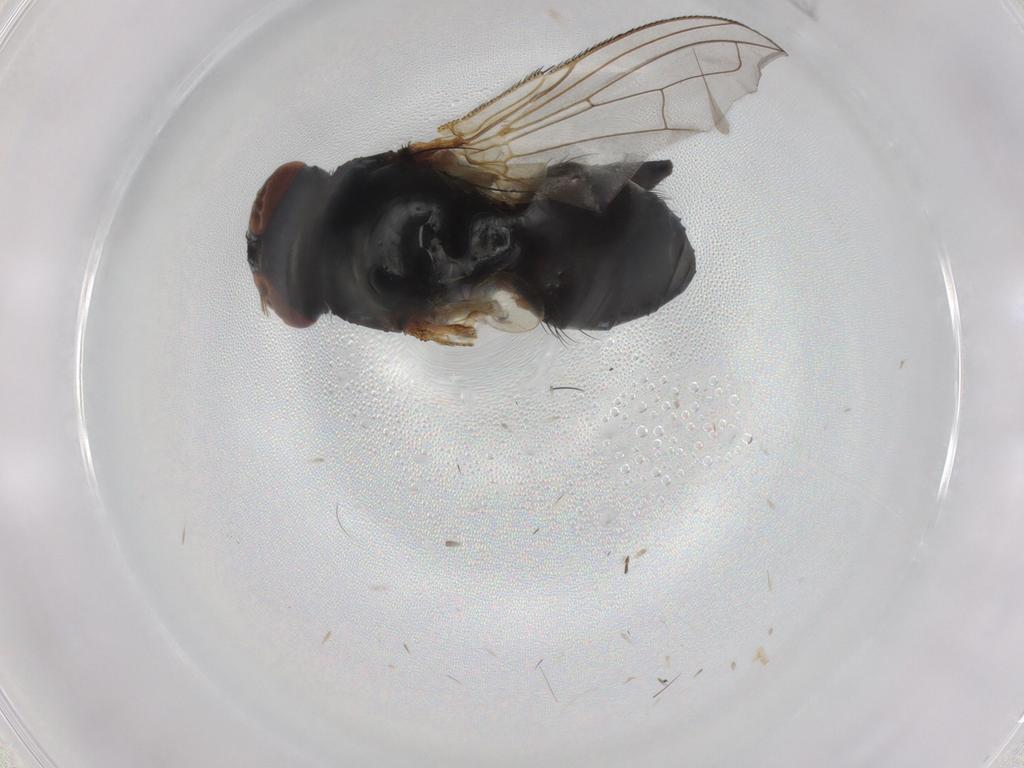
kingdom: Animalia
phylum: Arthropoda
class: Insecta
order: Diptera
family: Tachinidae
